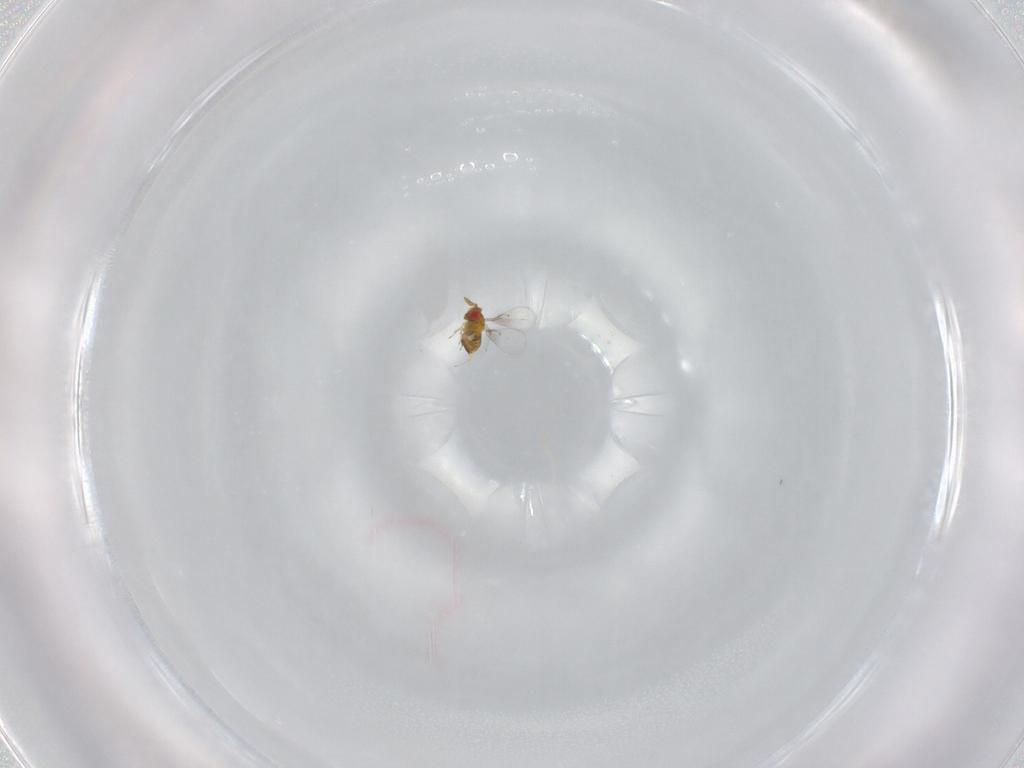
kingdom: Animalia
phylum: Arthropoda
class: Insecta
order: Hymenoptera
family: Trichogrammatidae
